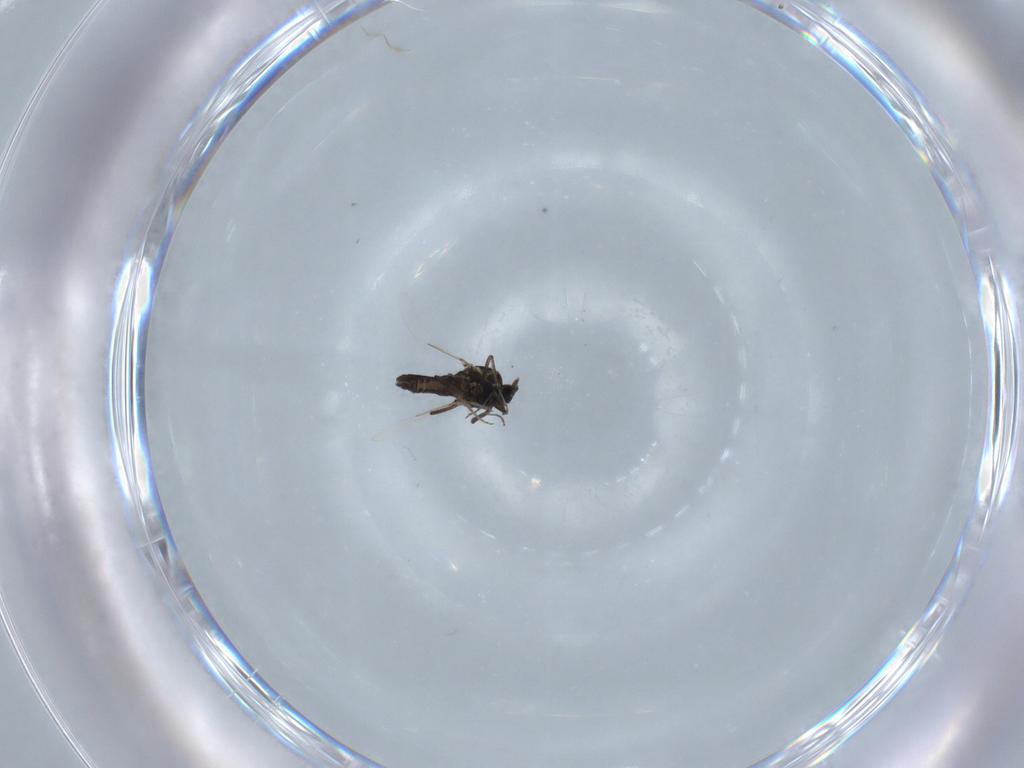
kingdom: Animalia
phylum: Arthropoda
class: Insecta
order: Diptera
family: Ceratopogonidae
